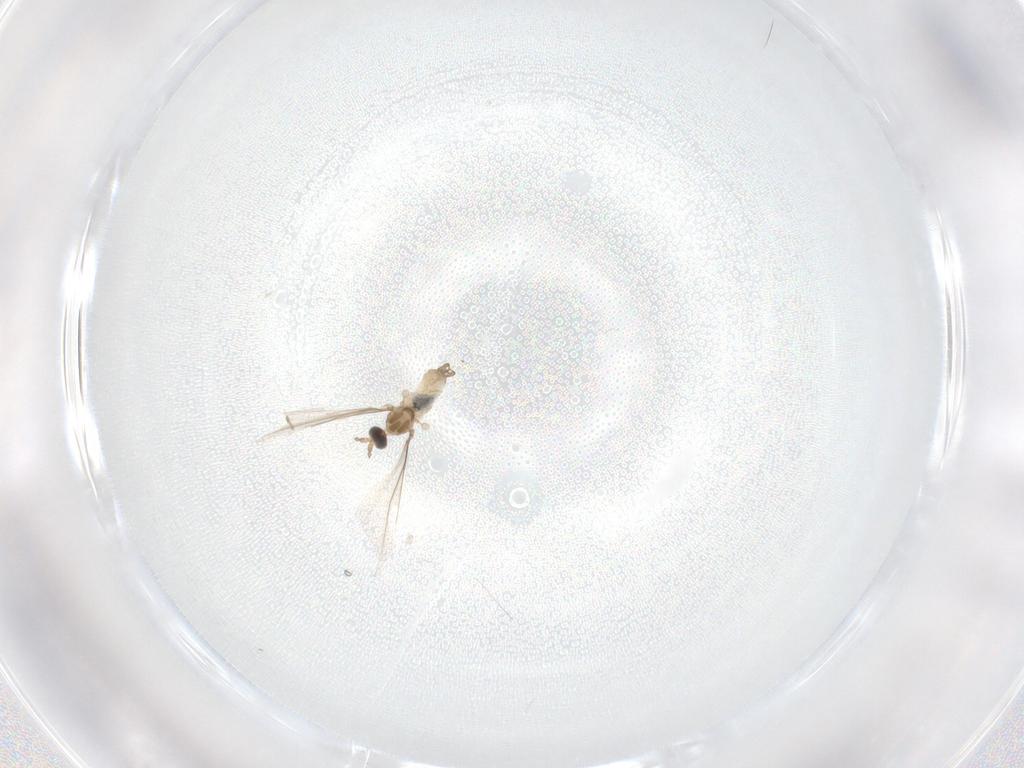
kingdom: Animalia
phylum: Arthropoda
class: Insecta
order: Diptera
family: Cecidomyiidae
